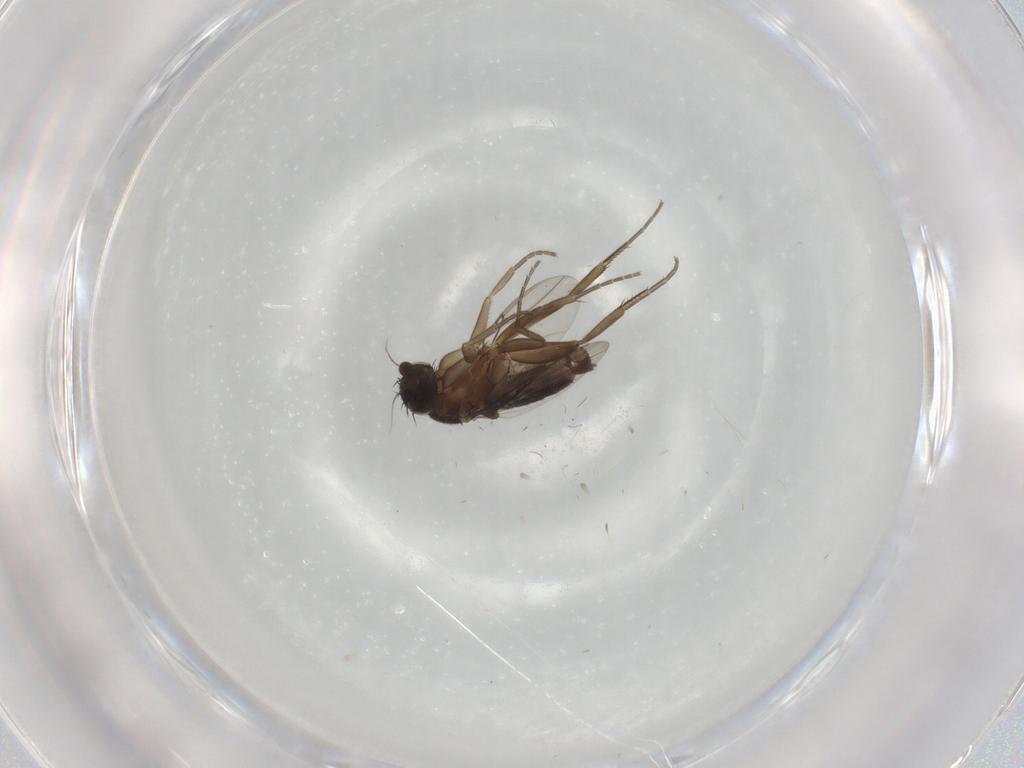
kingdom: Animalia
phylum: Arthropoda
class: Insecta
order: Diptera
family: Phoridae
